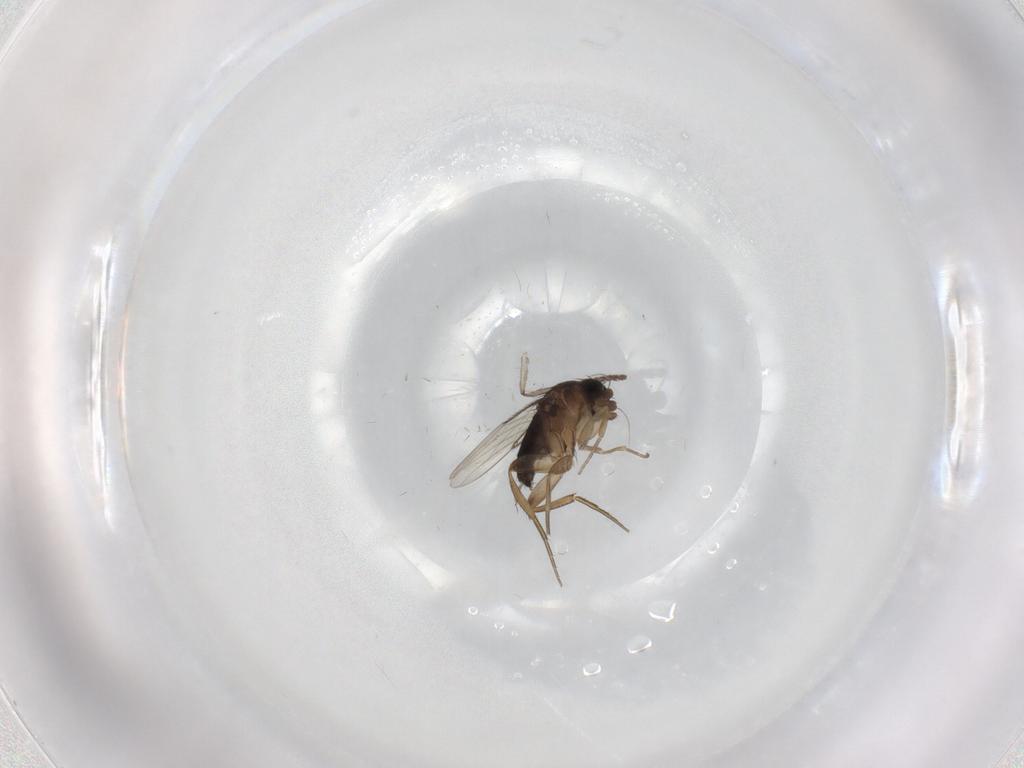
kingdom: Animalia
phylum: Arthropoda
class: Insecta
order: Diptera
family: Psychodidae
